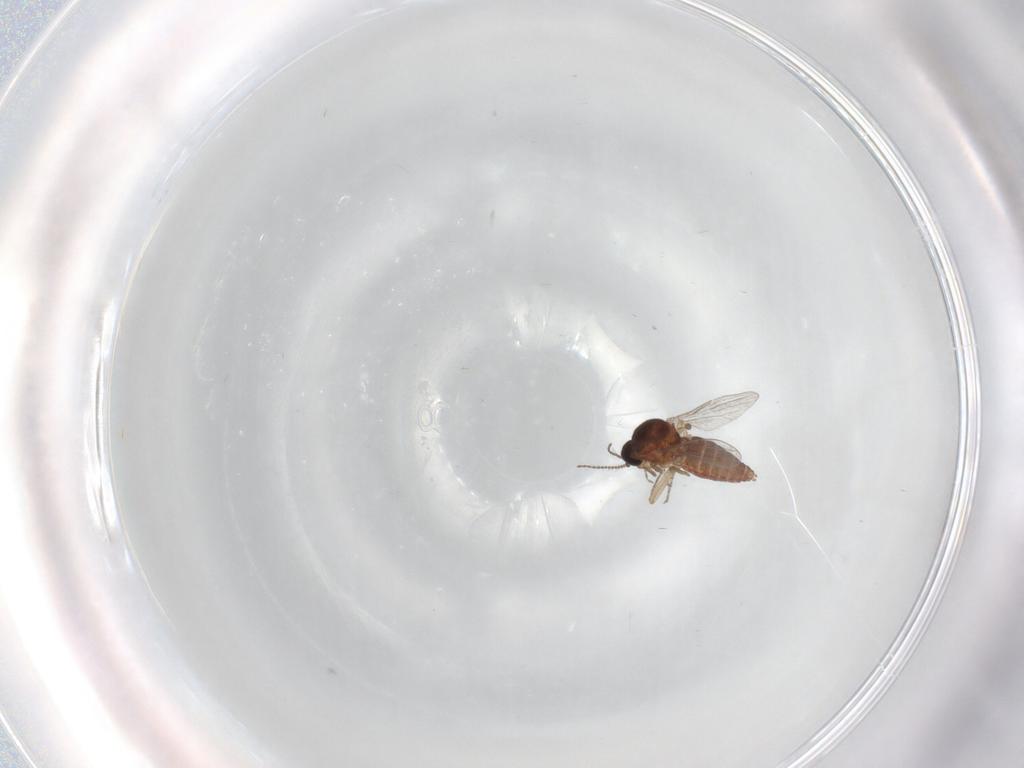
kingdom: Animalia
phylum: Arthropoda
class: Insecta
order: Diptera
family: Ceratopogonidae
